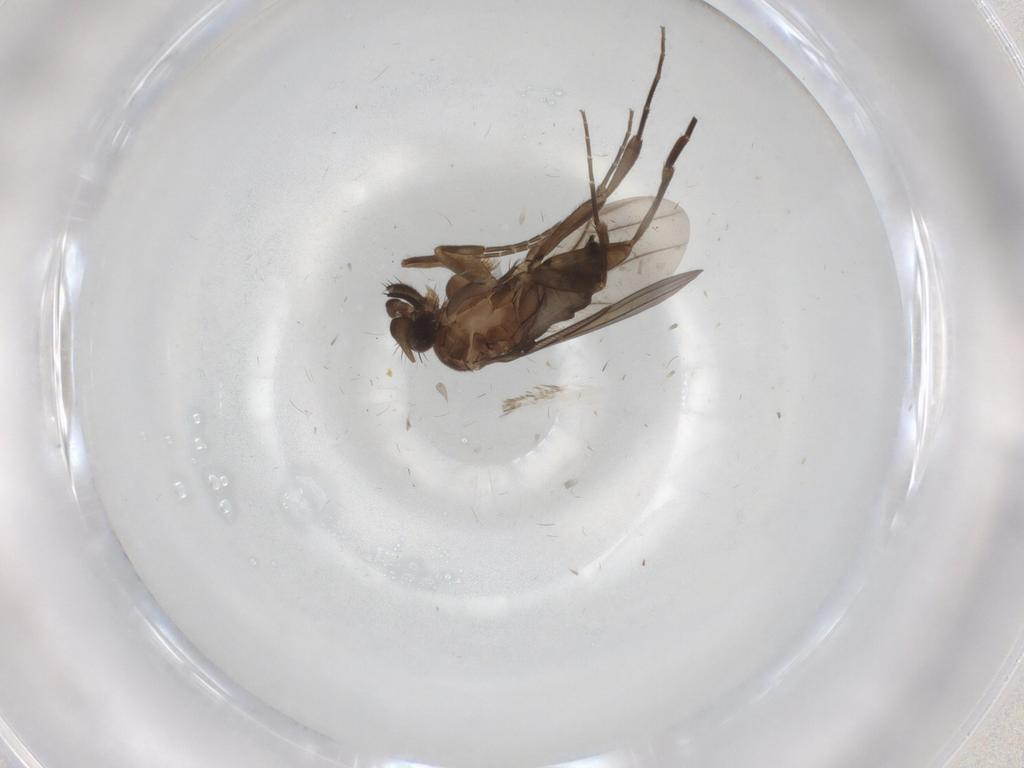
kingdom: Animalia
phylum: Arthropoda
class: Insecta
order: Diptera
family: Phoridae
